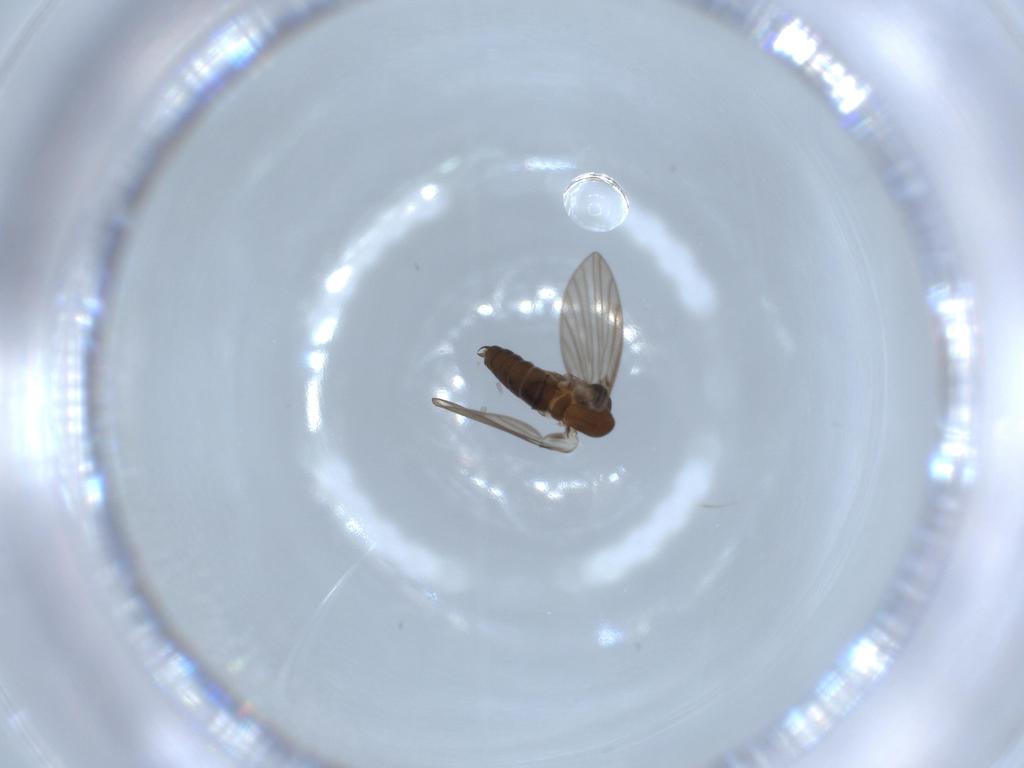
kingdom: Animalia
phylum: Arthropoda
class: Insecta
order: Diptera
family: Psychodidae
